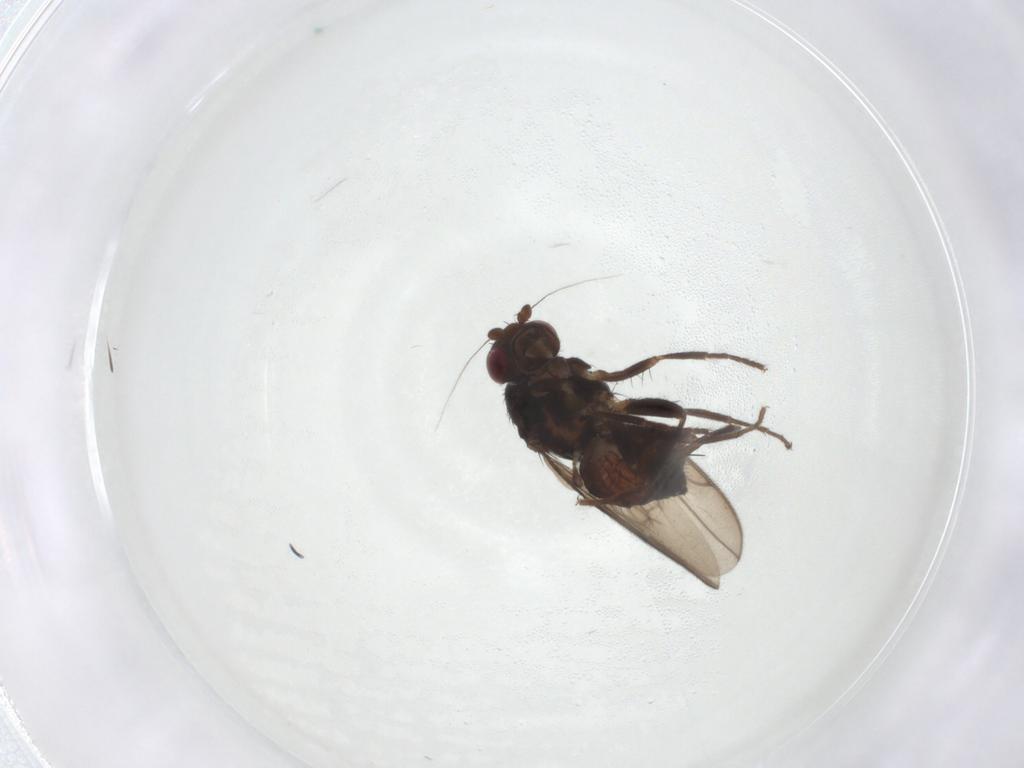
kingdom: Animalia
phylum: Arthropoda
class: Insecta
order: Diptera
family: Sphaeroceridae
